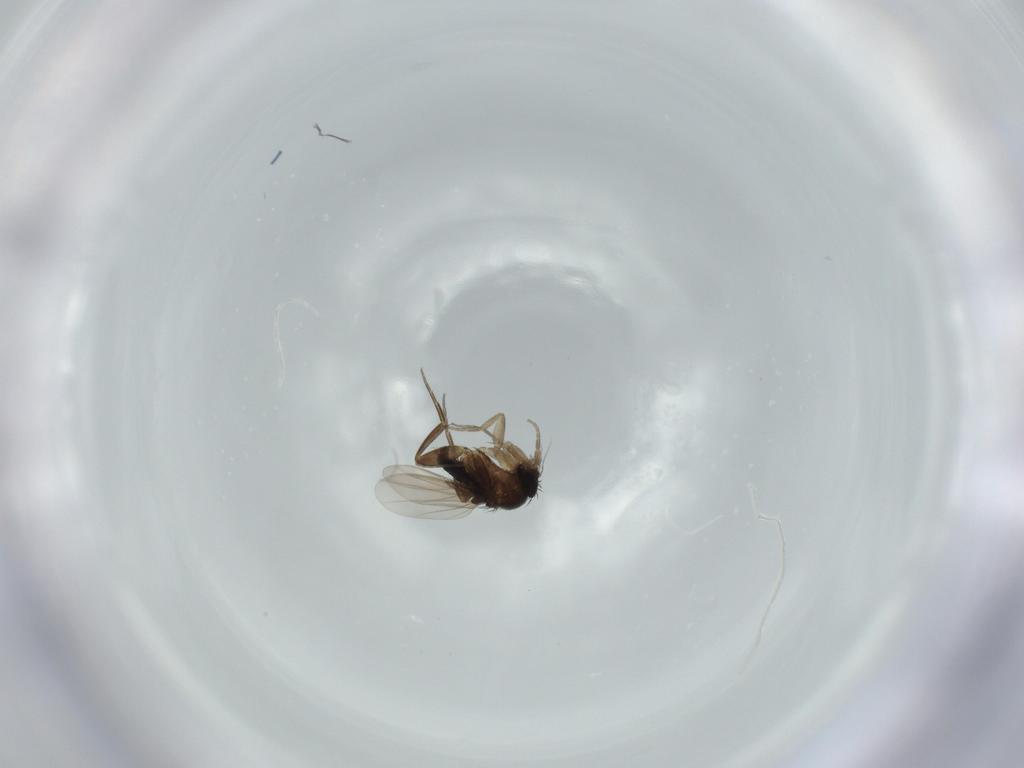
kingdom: Animalia
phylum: Arthropoda
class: Insecta
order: Diptera
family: Phoridae
